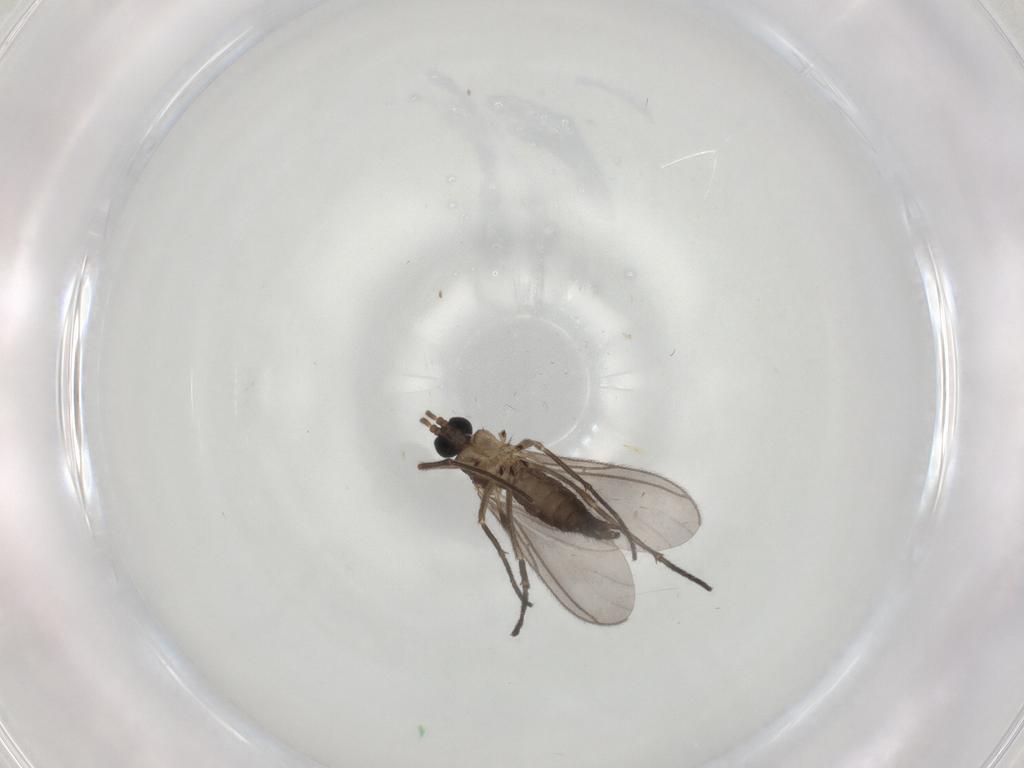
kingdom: Animalia
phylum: Arthropoda
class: Insecta
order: Diptera
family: Sciaridae
